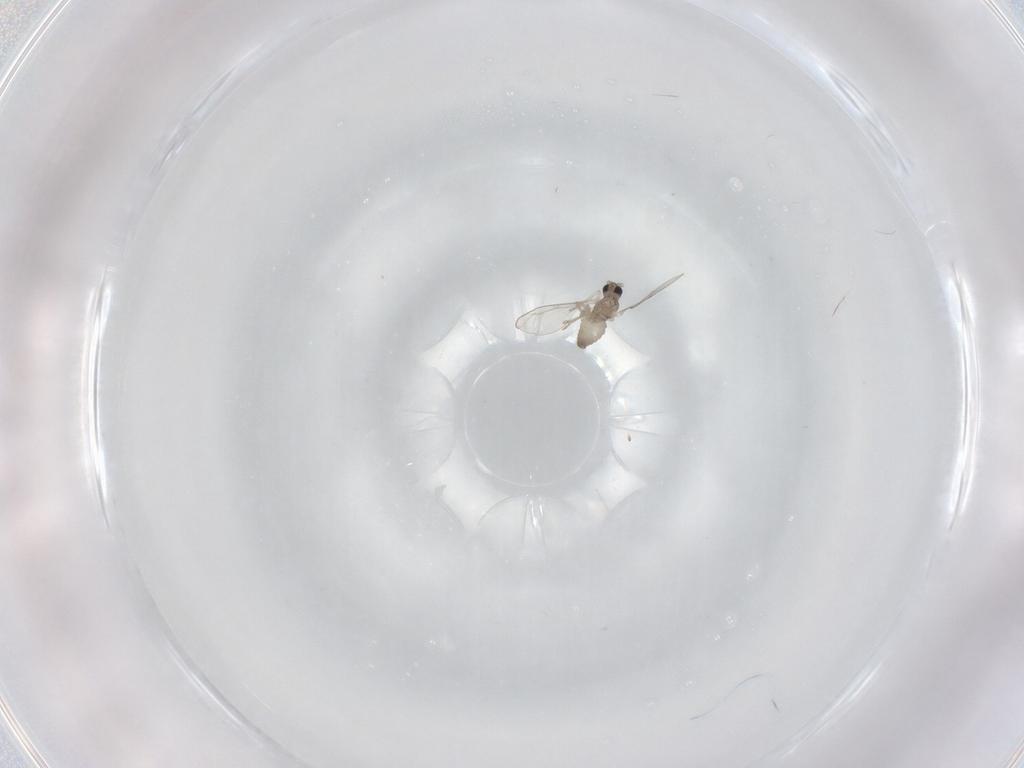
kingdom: Animalia
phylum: Arthropoda
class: Insecta
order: Diptera
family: Cecidomyiidae
